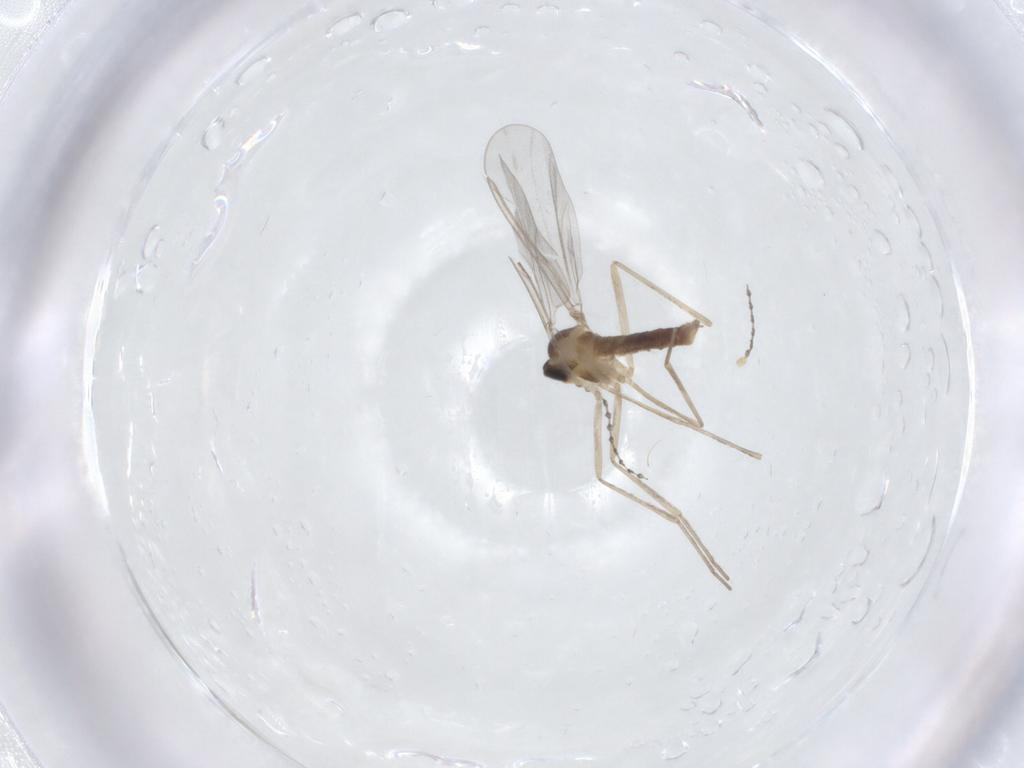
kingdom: Animalia
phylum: Arthropoda
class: Insecta
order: Diptera
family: Cecidomyiidae
